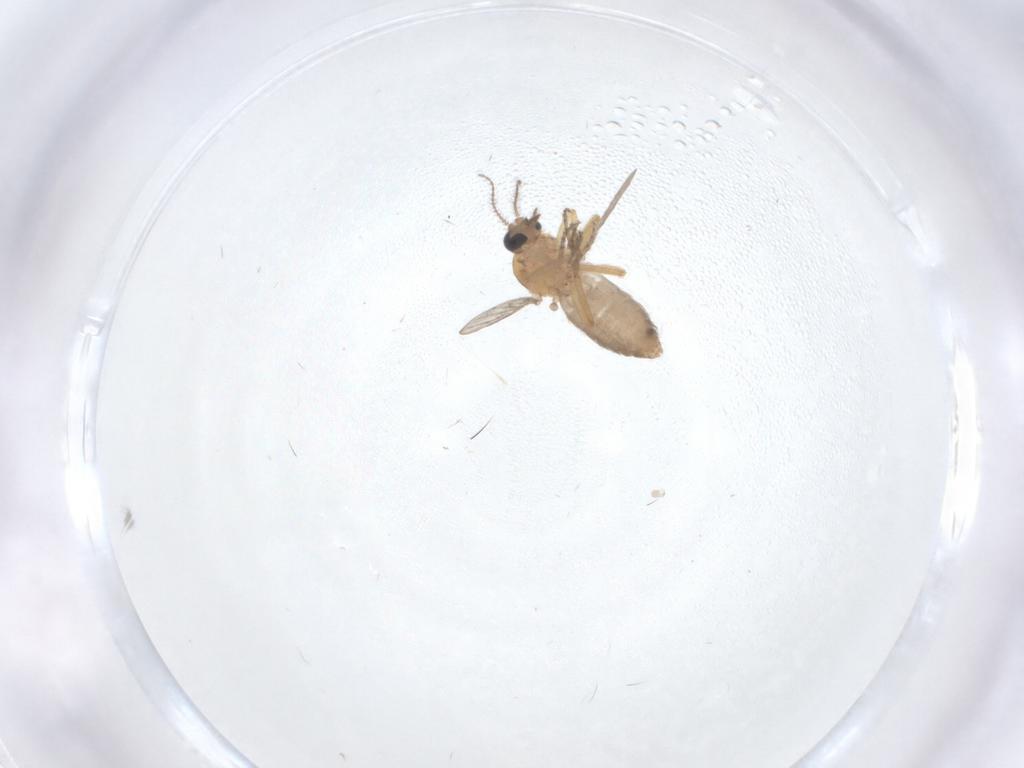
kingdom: Animalia
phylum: Arthropoda
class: Insecta
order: Diptera
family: Ceratopogonidae
